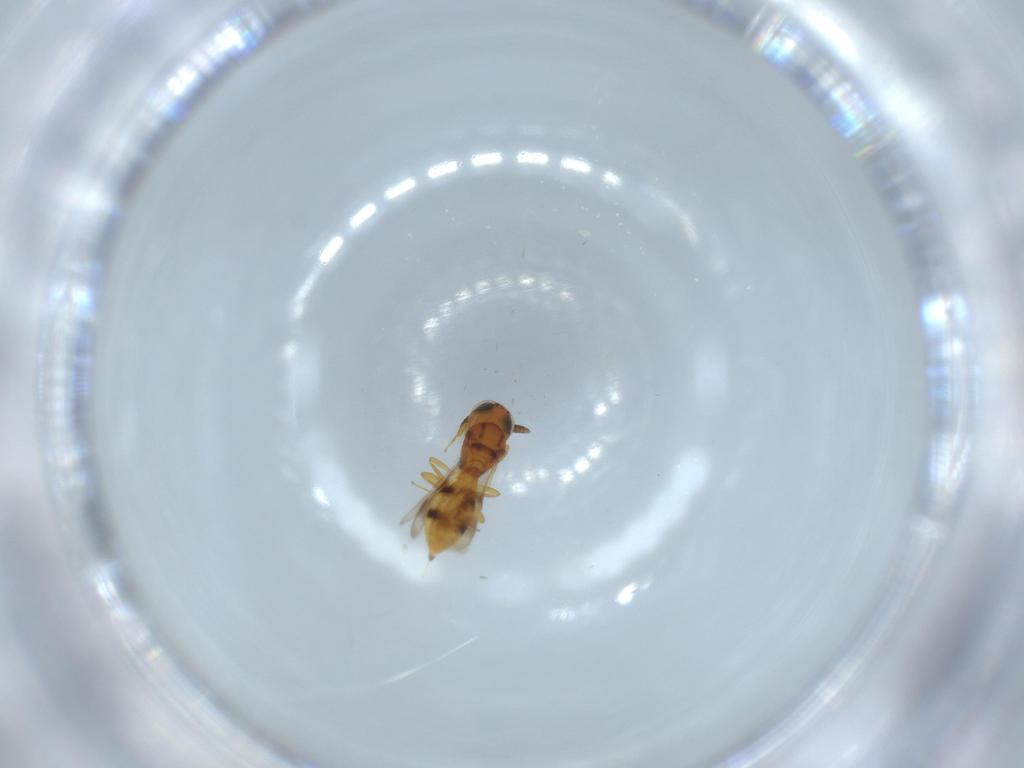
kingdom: Animalia
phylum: Arthropoda
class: Insecta
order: Hymenoptera
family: Scelionidae
